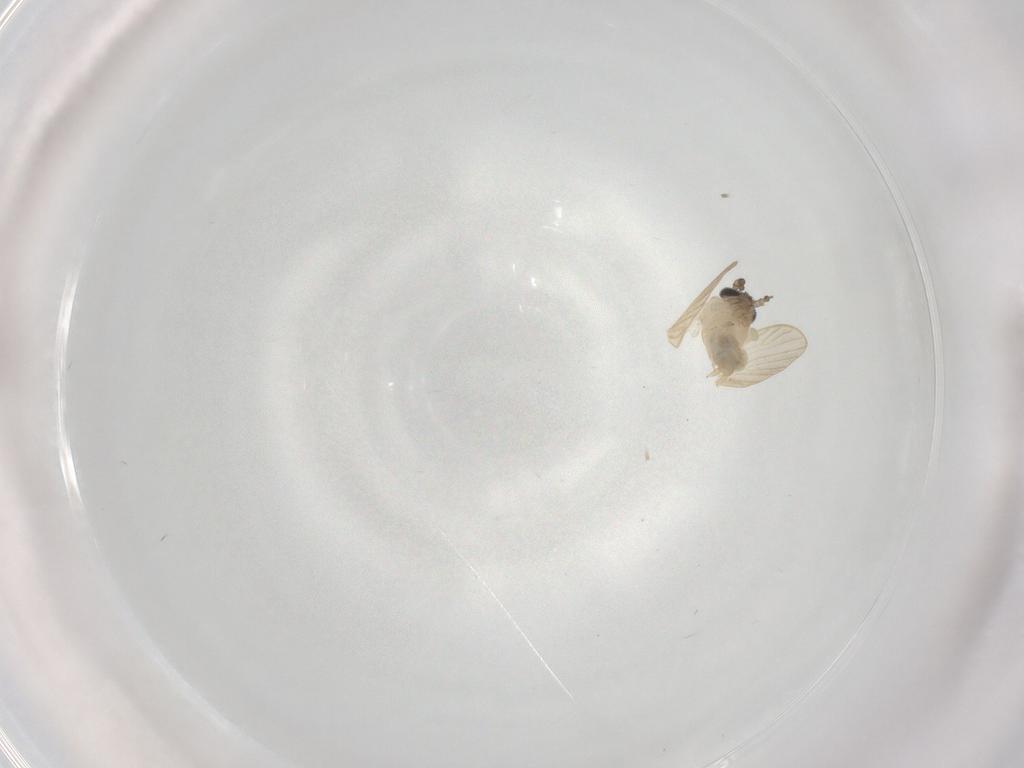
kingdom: Animalia
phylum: Arthropoda
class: Insecta
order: Diptera
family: Psychodidae
